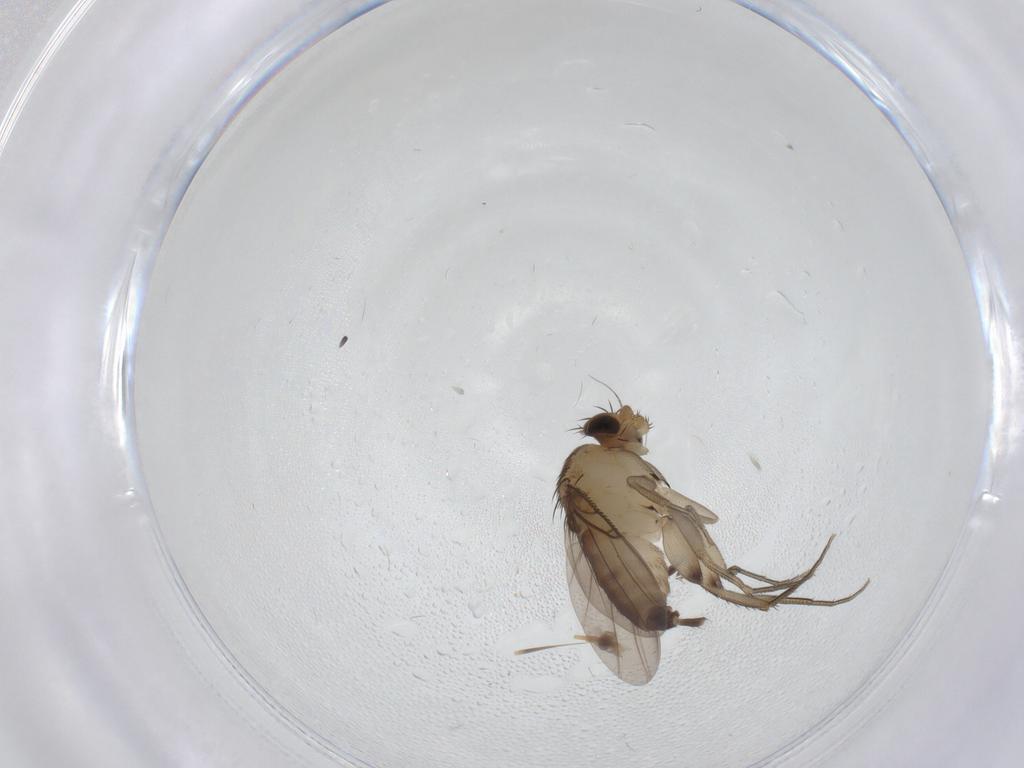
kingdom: Animalia
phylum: Arthropoda
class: Insecta
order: Diptera
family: Phoridae
